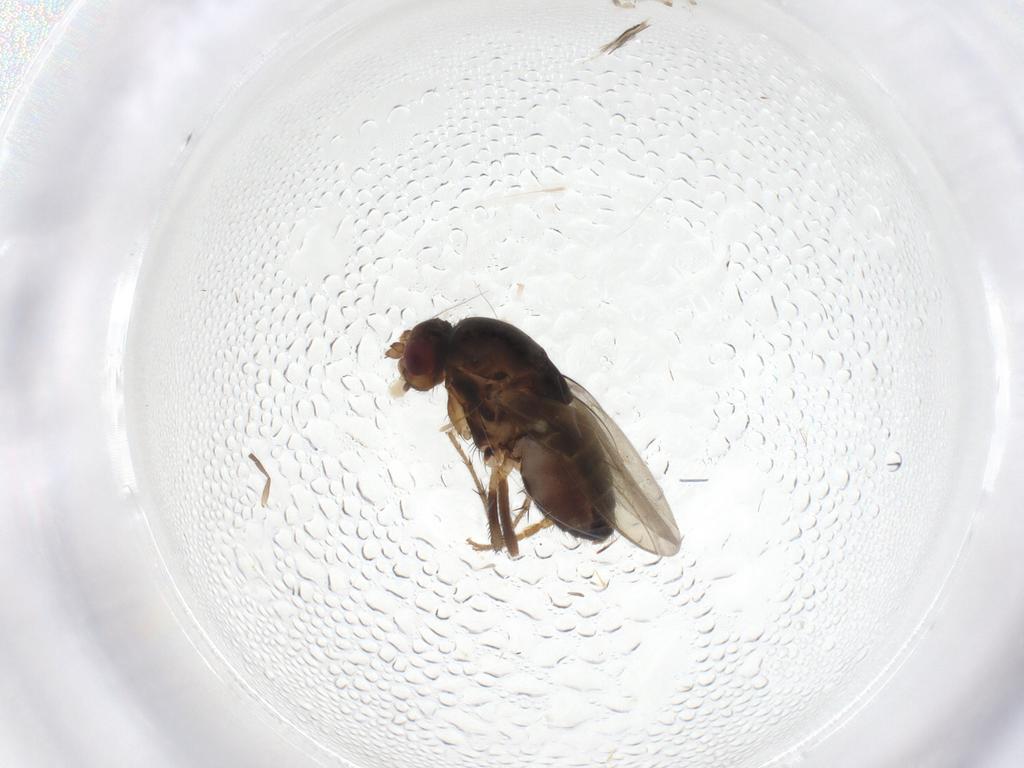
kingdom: Animalia
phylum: Arthropoda
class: Insecta
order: Diptera
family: Sphaeroceridae
